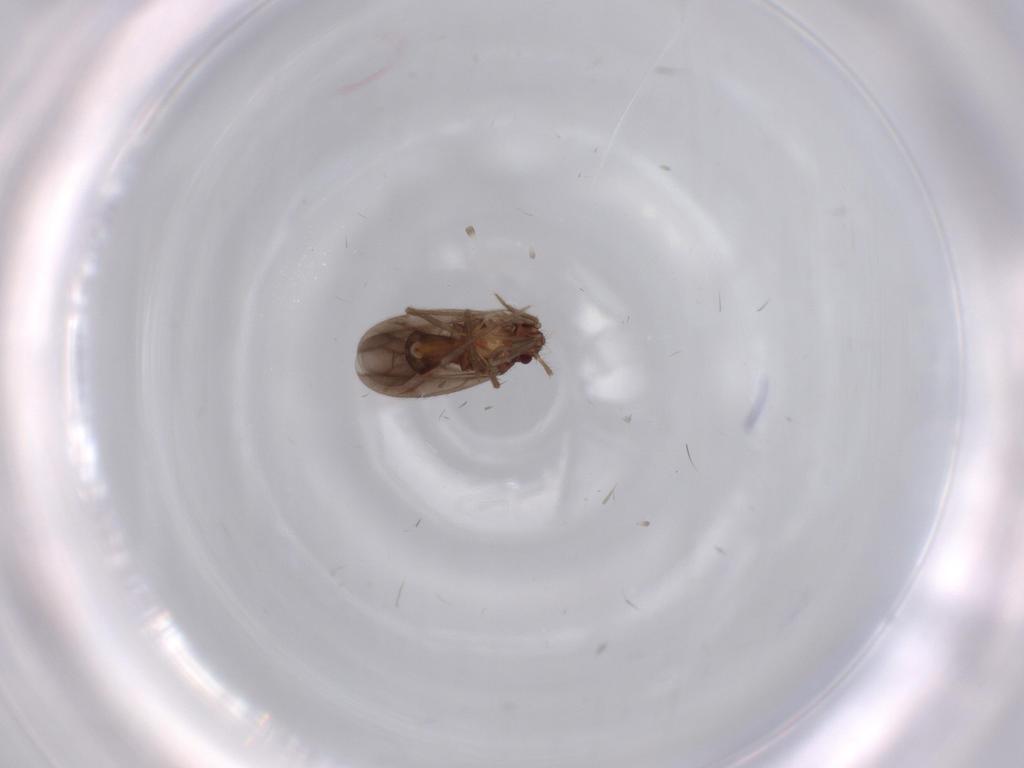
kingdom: Animalia
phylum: Arthropoda
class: Insecta
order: Hemiptera
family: Ceratocombidae
